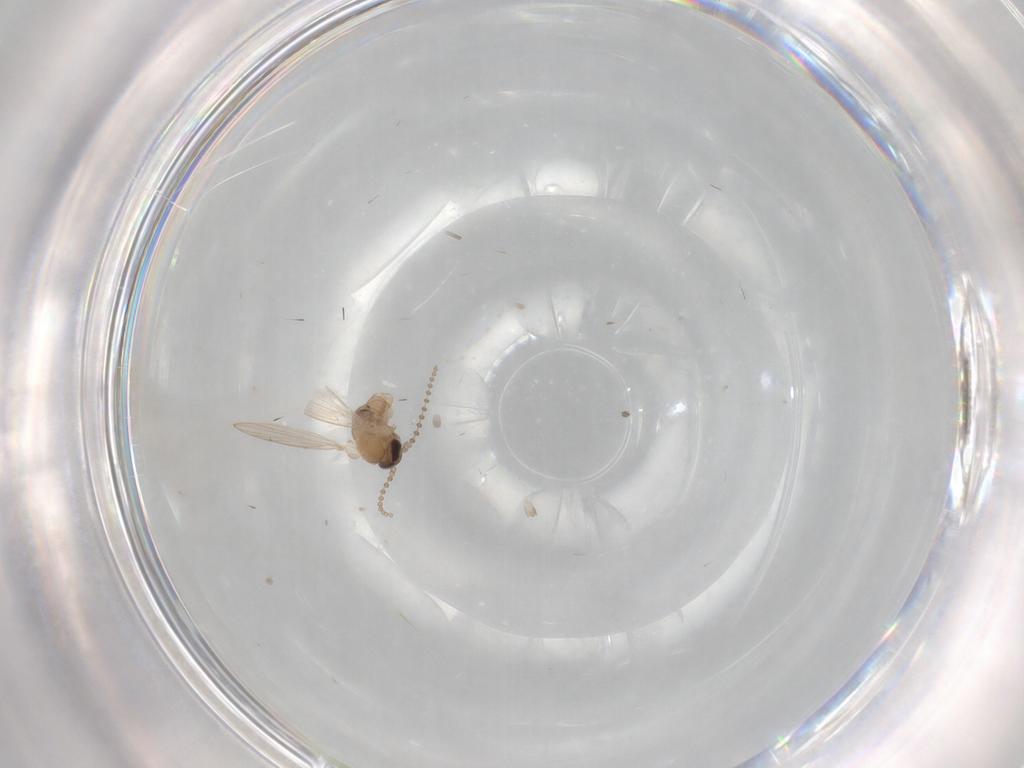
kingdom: Animalia
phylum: Arthropoda
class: Insecta
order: Diptera
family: Psychodidae
